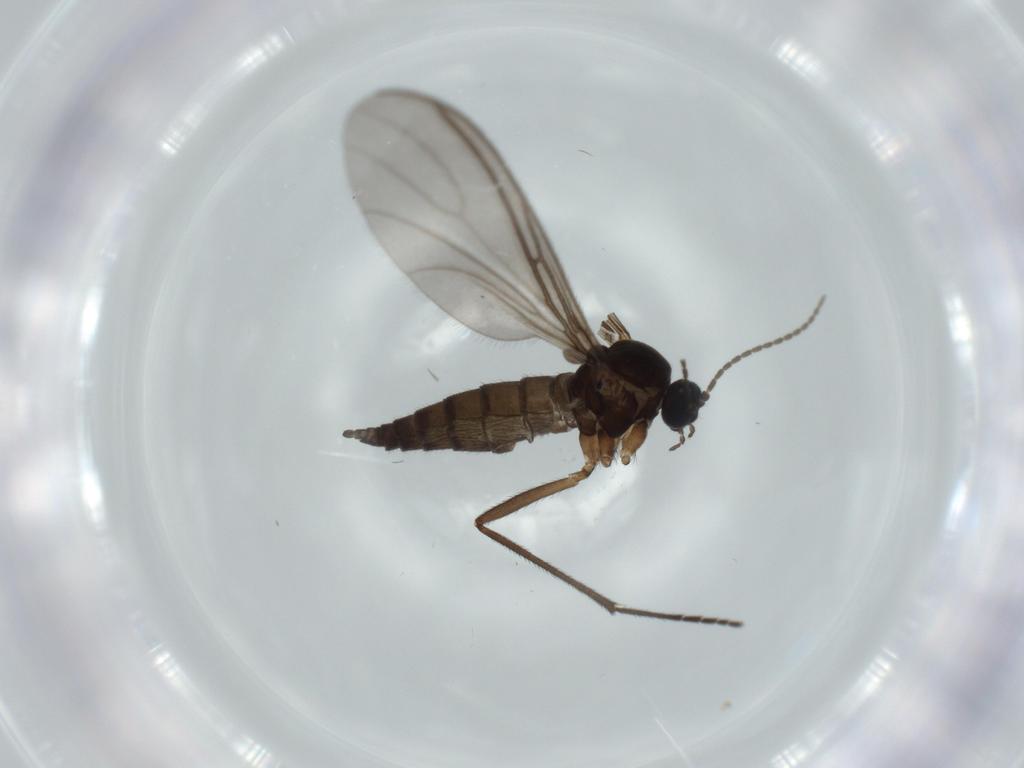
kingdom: Animalia
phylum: Arthropoda
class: Insecta
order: Diptera
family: Sciaridae
